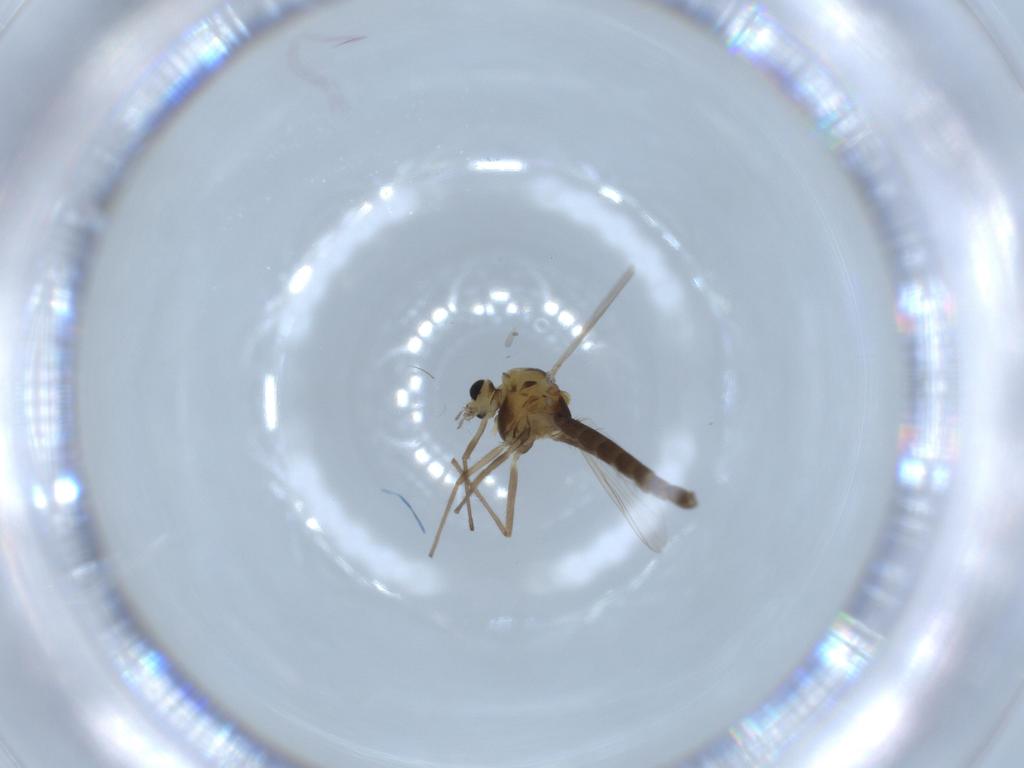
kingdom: Animalia
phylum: Arthropoda
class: Insecta
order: Diptera
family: Chironomidae
